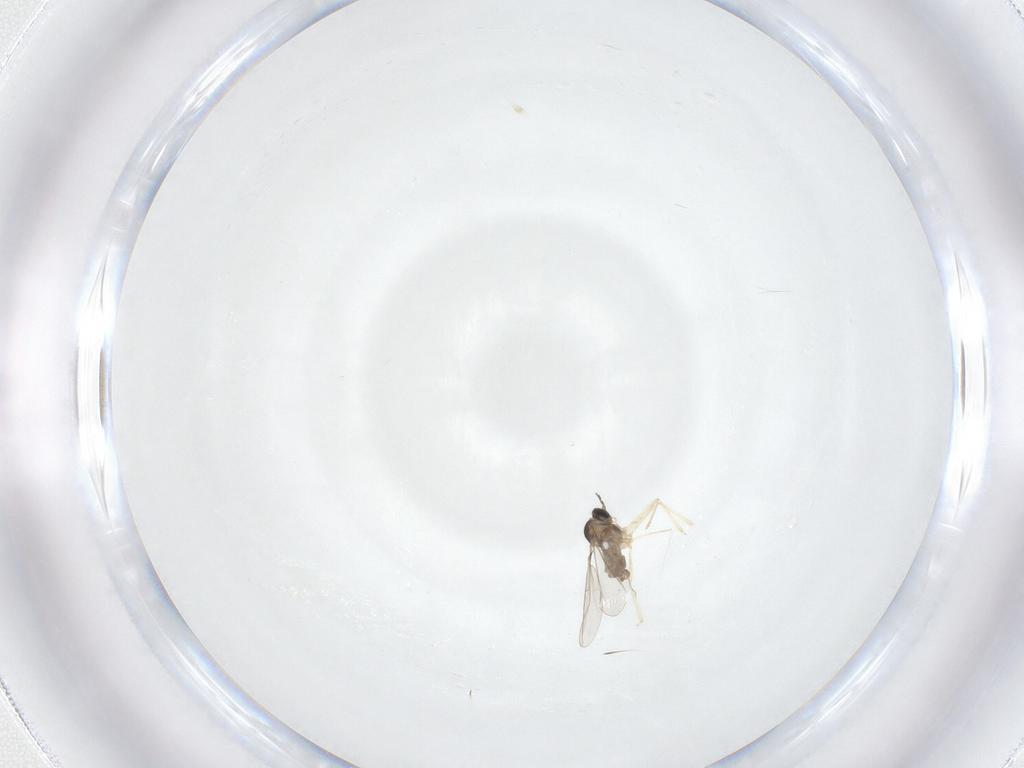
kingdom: Animalia
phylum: Arthropoda
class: Insecta
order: Diptera
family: Cecidomyiidae
